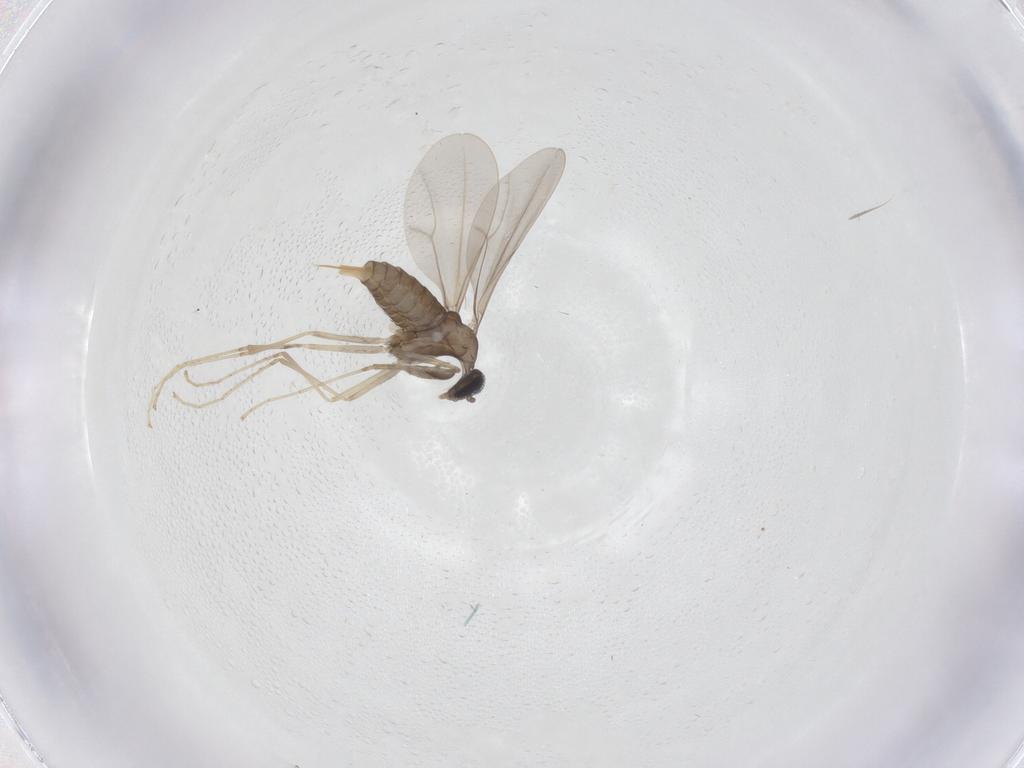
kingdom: Animalia
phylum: Arthropoda
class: Insecta
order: Diptera
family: Cecidomyiidae
